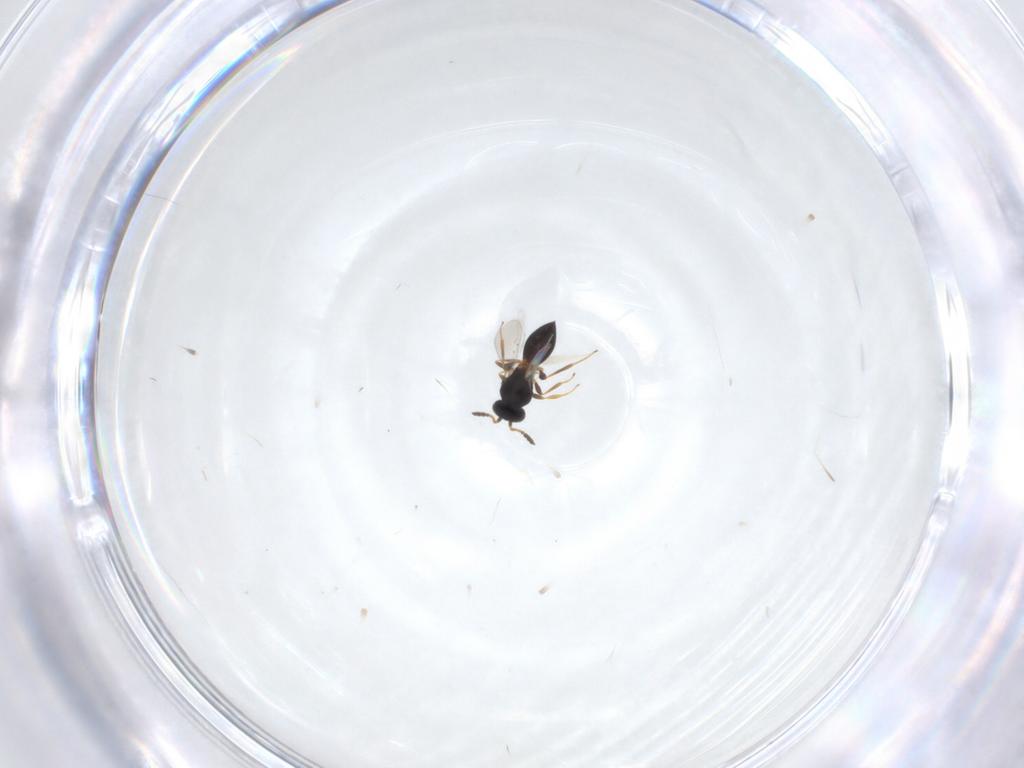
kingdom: Animalia
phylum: Arthropoda
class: Insecta
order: Hymenoptera
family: Platygastridae
